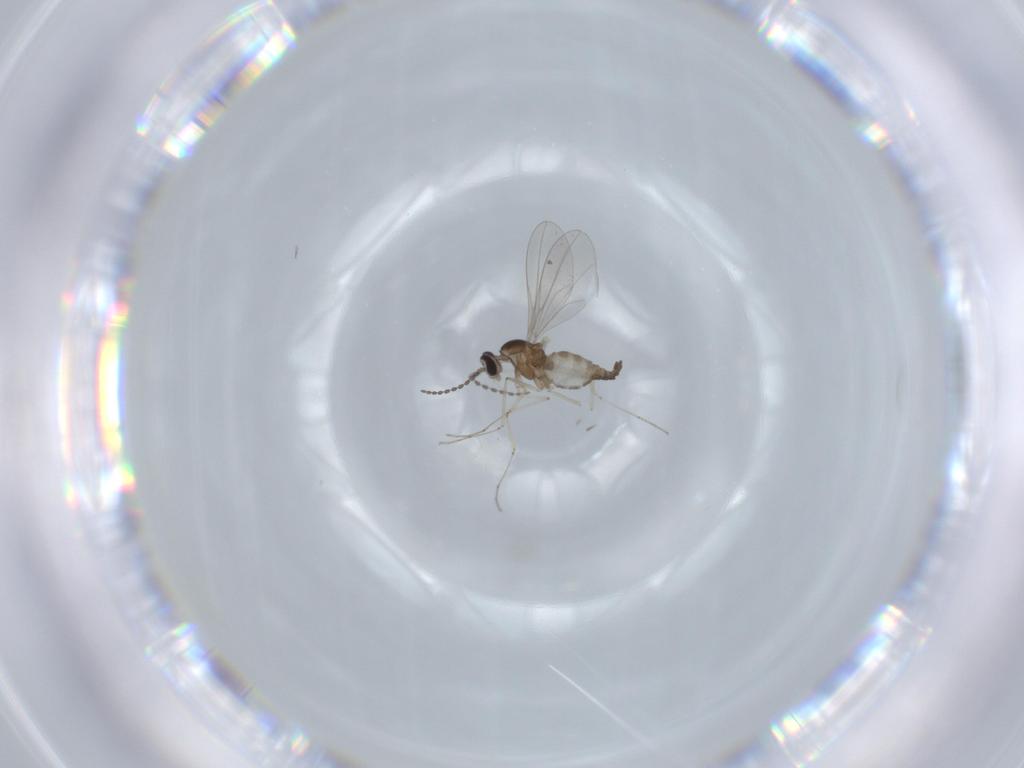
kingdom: Animalia
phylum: Arthropoda
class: Insecta
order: Diptera
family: Cecidomyiidae
